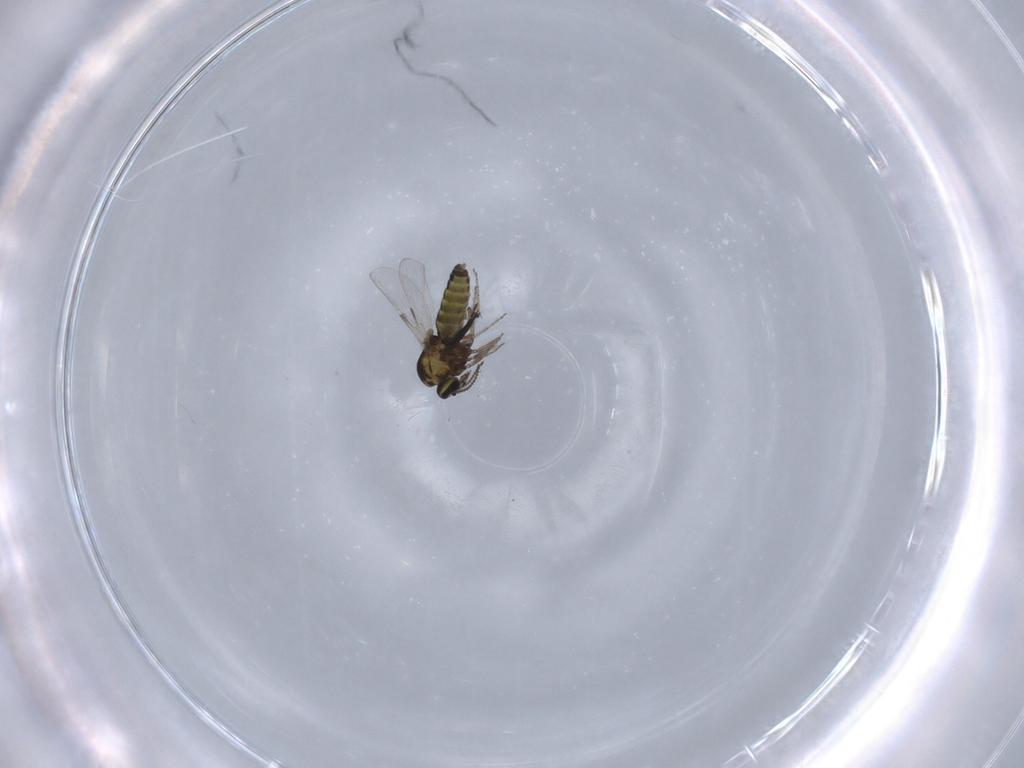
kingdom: Animalia
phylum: Arthropoda
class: Insecta
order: Diptera
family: Ceratopogonidae
